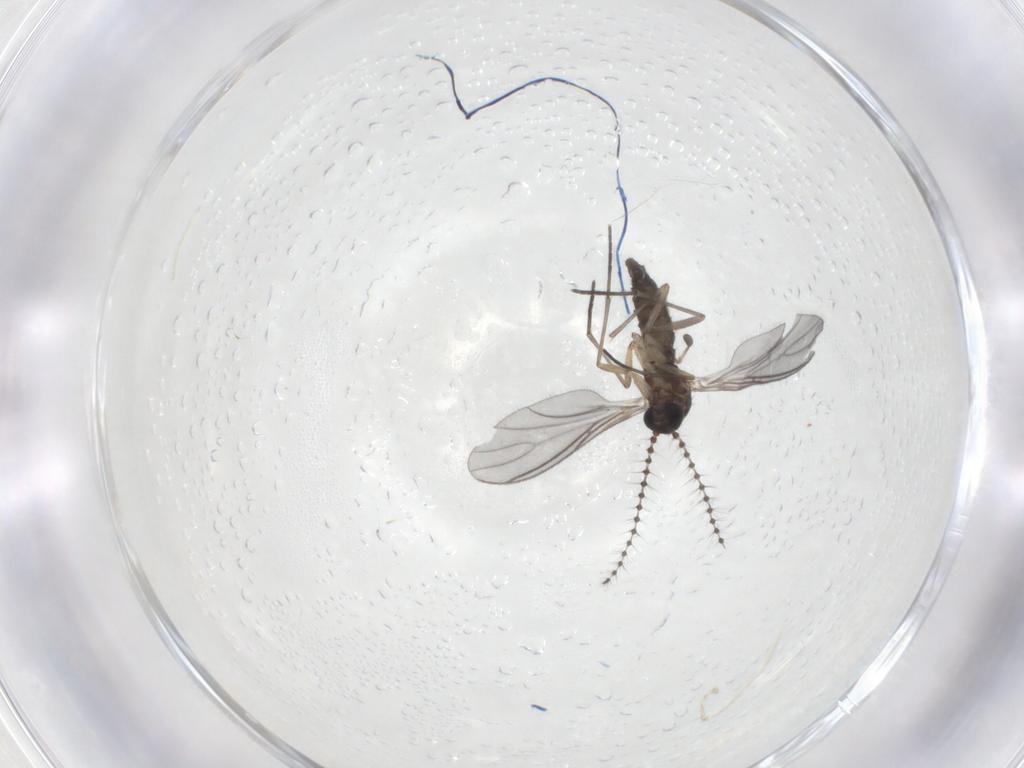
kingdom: Animalia
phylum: Arthropoda
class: Insecta
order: Diptera
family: Sciaridae
